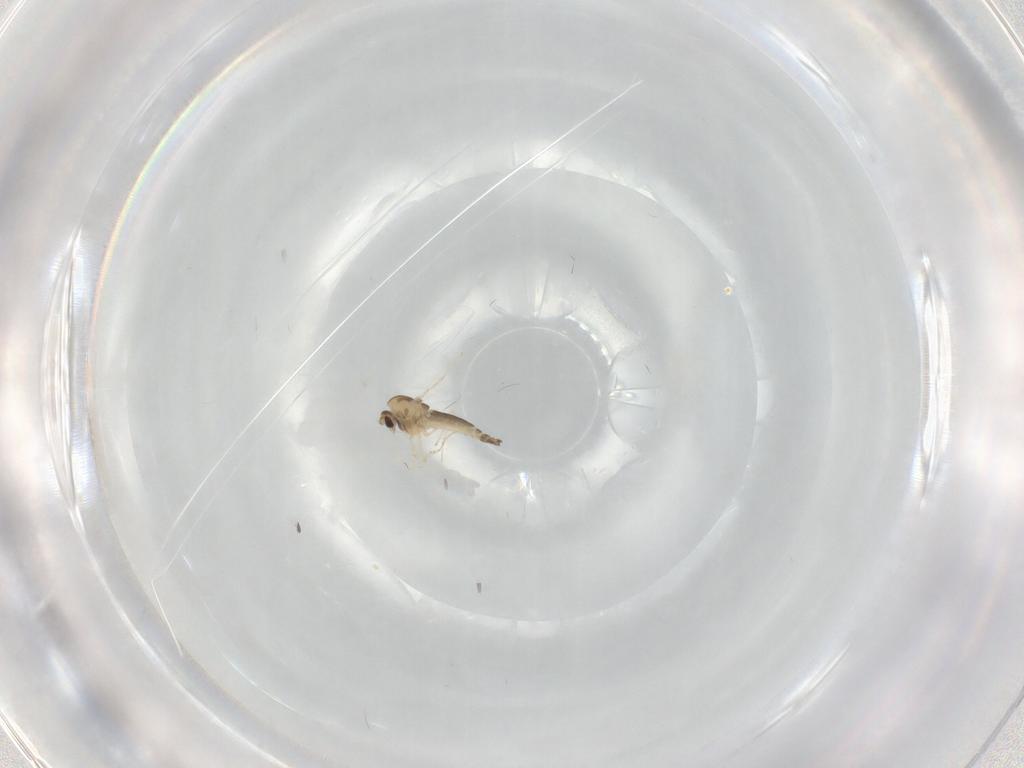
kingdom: Animalia
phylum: Arthropoda
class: Insecta
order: Diptera
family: Chironomidae
